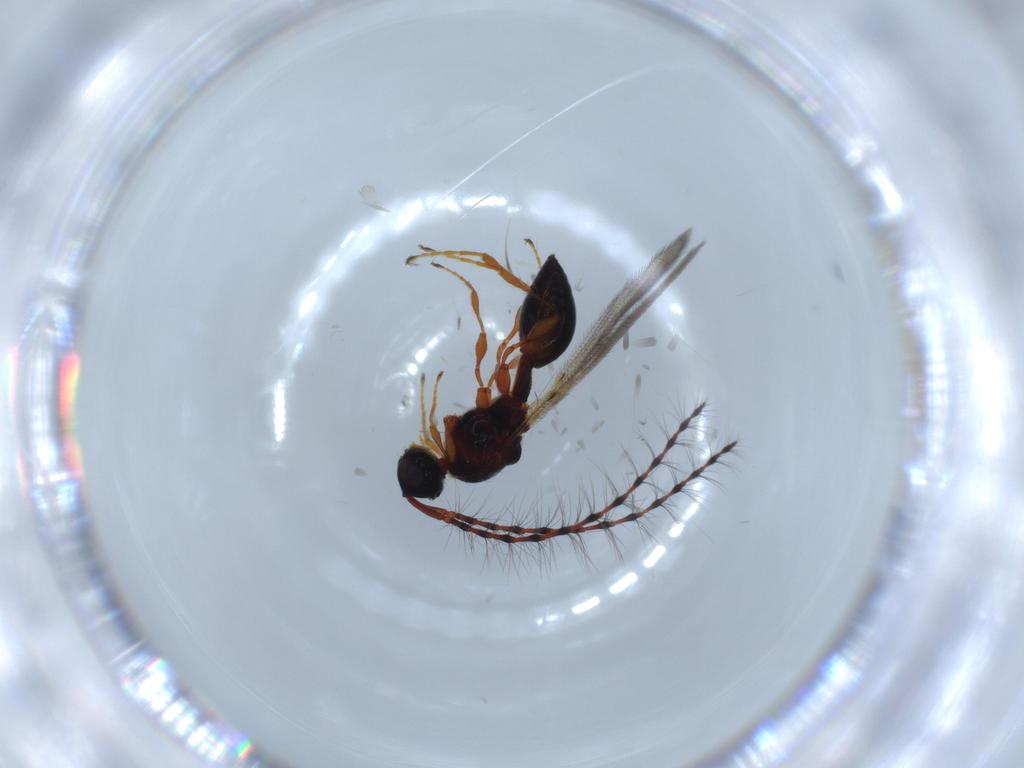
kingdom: Animalia
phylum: Arthropoda
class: Insecta
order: Hymenoptera
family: Diapriidae
